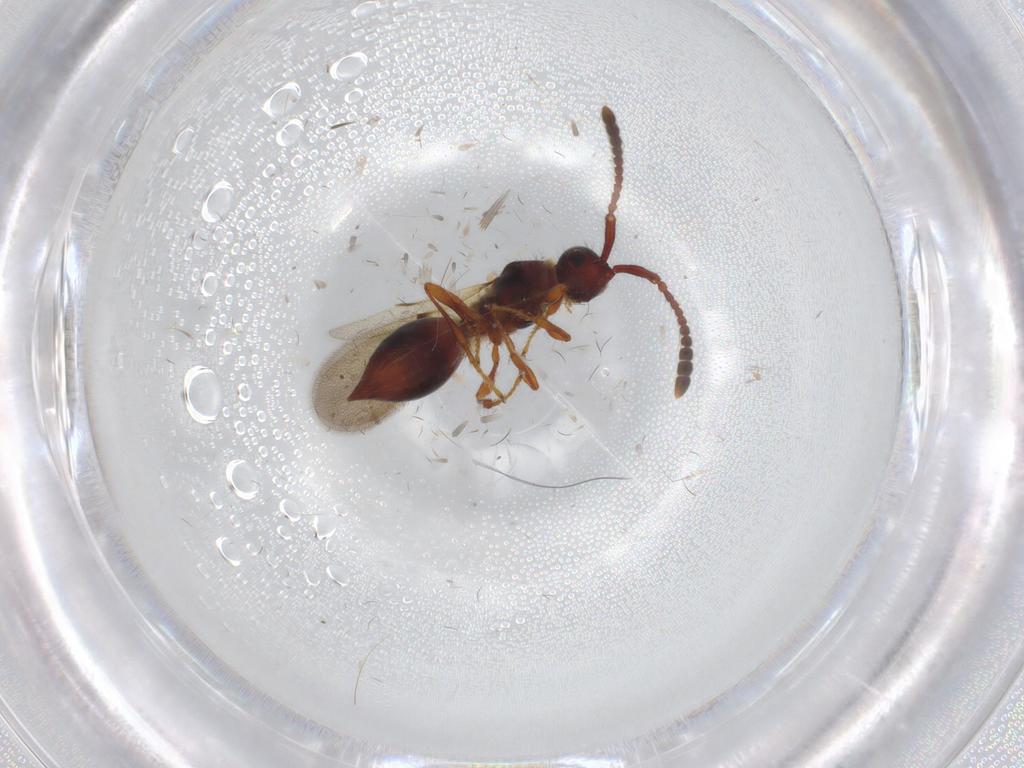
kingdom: Animalia
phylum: Arthropoda
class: Insecta
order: Hymenoptera
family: Diapriidae
